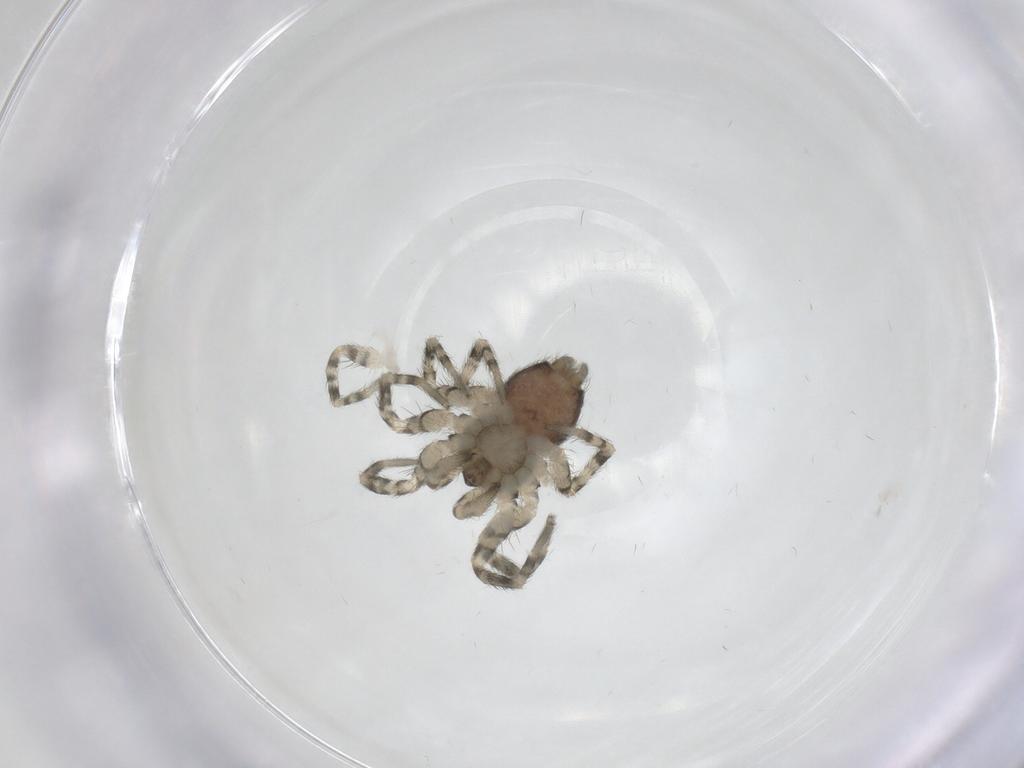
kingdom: Animalia
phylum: Arthropoda
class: Arachnida
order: Araneae
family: Oecobiidae
